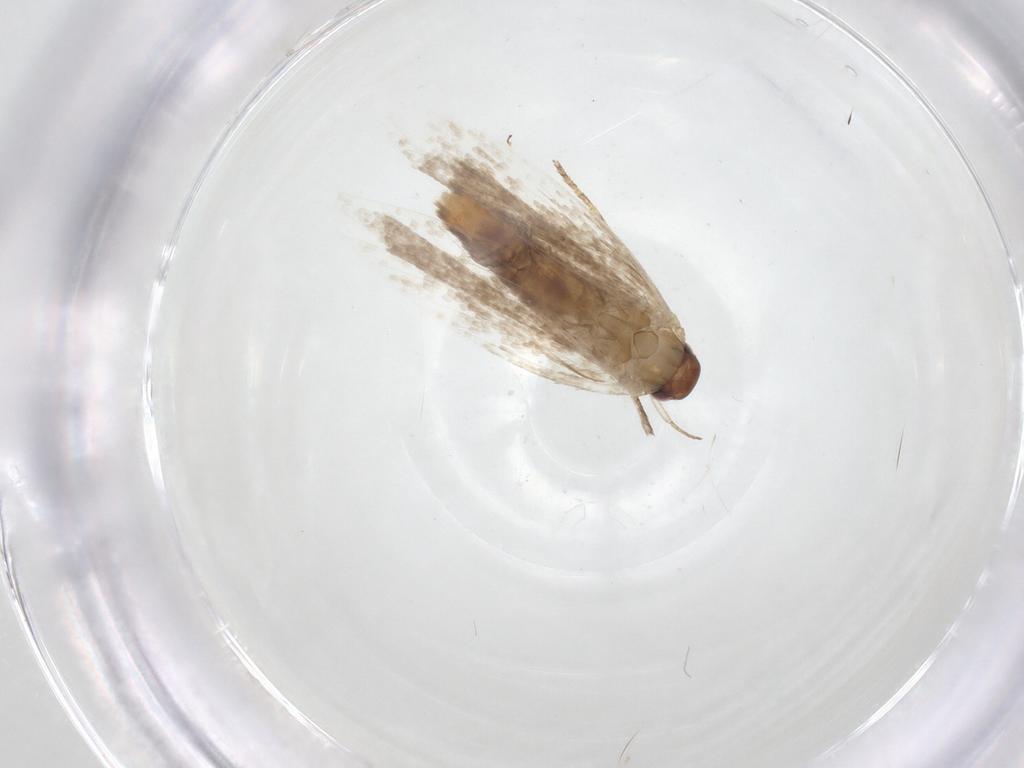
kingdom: Animalia
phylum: Arthropoda
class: Insecta
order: Lepidoptera
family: Gelechiidae
